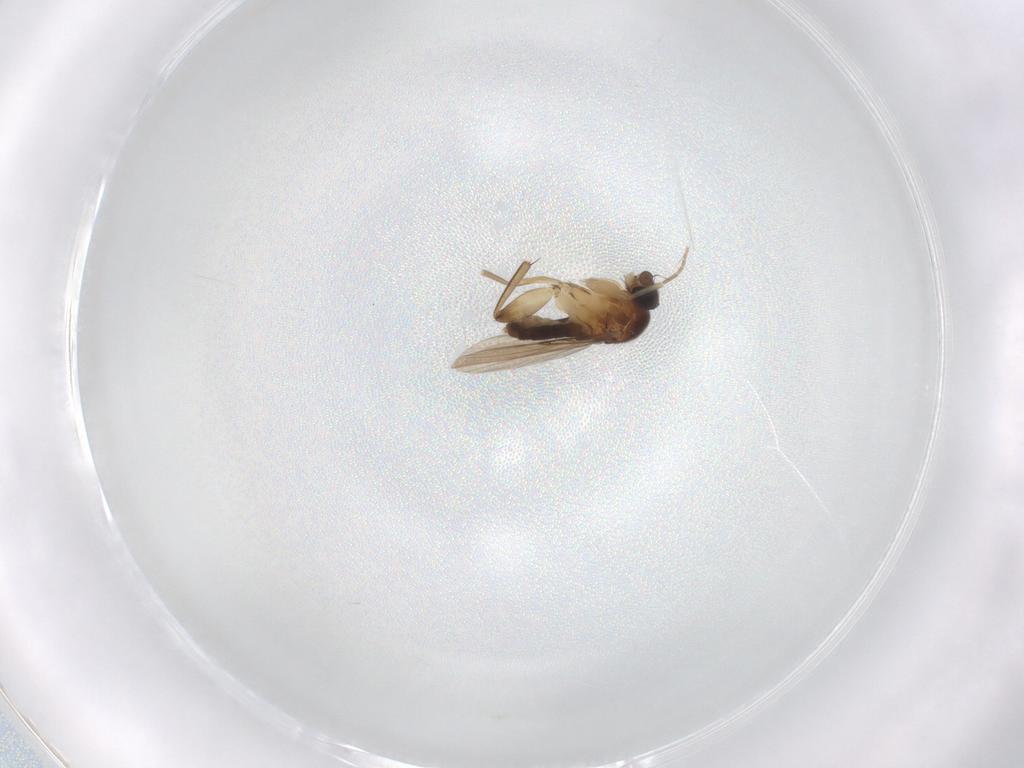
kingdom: Animalia
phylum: Arthropoda
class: Insecta
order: Diptera
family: Phoridae
